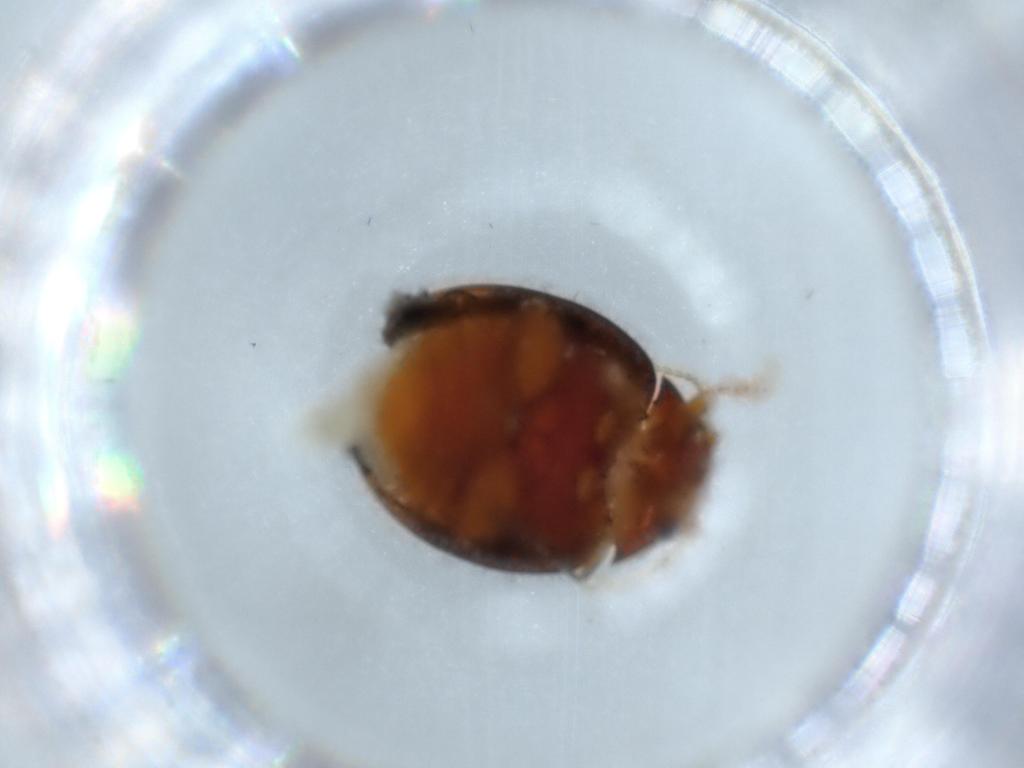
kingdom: Animalia
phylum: Arthropoda
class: Insecta
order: Coleoptera
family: Scirtidae
